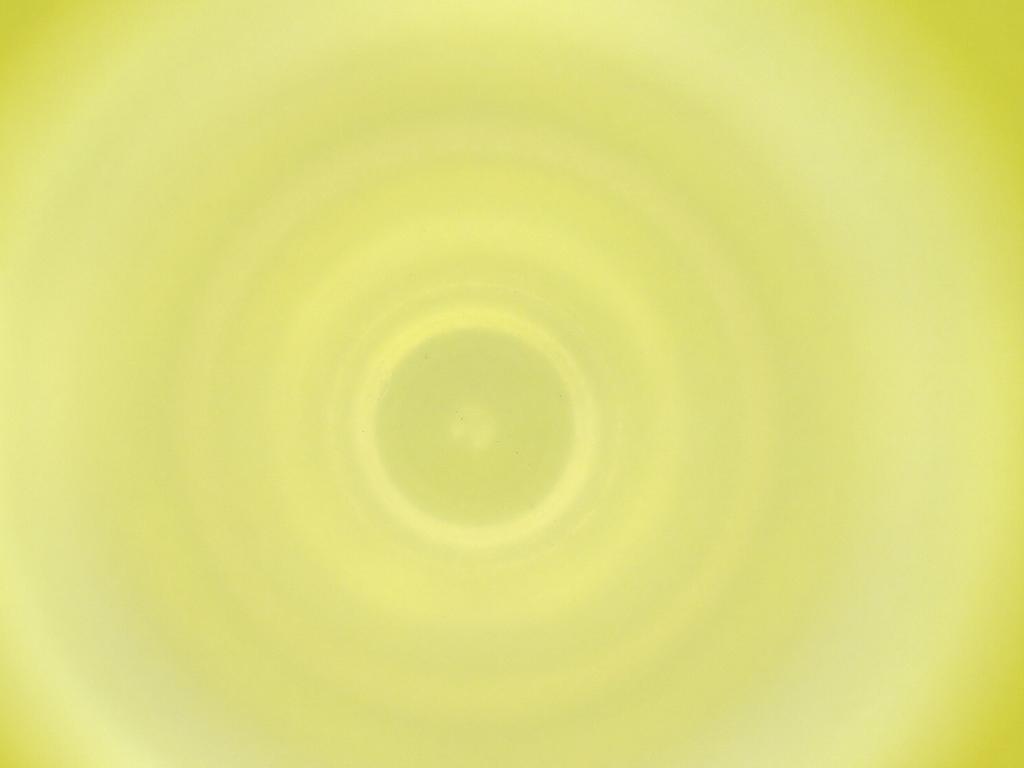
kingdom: Animalia
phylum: Arthropoda
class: Insecta
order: Diptera
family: Cecidomyiidae
